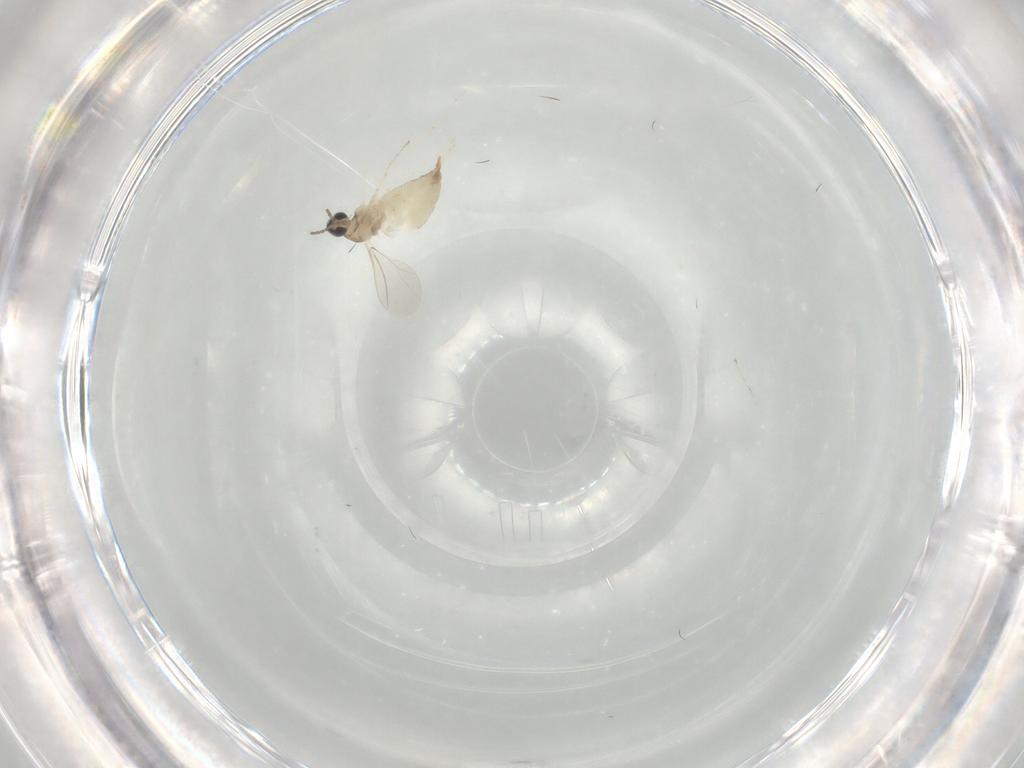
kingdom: Animalia
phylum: Arthropoda
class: Insecta
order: Diptera
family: Cecidomyiidae
